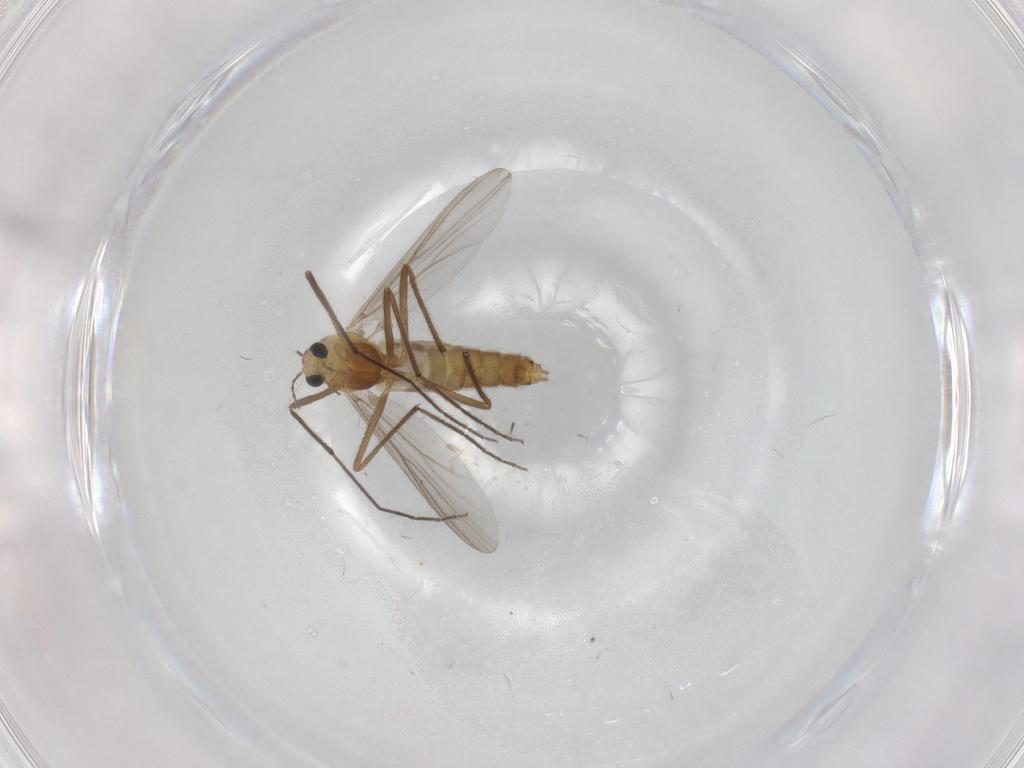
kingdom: Animalia
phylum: Arthropoda
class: Insecta
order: Diptera
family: Chironomidae
